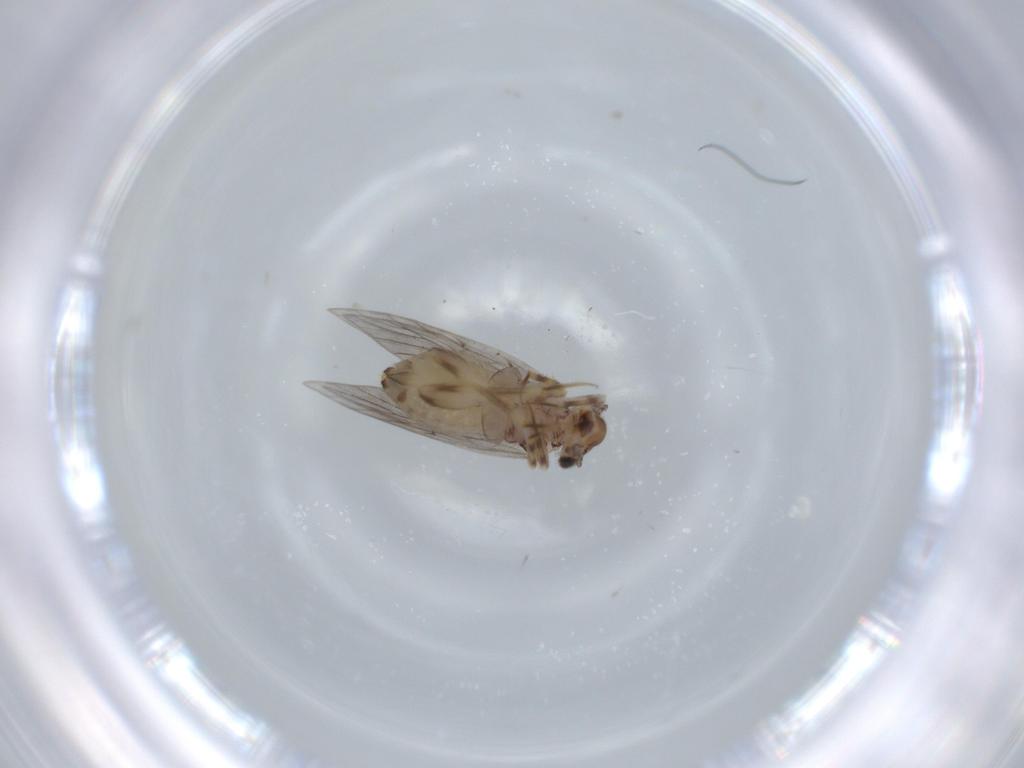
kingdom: Animalia
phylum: Arthropoda
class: Insecta
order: Psocodea
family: Lepidopsocidae
